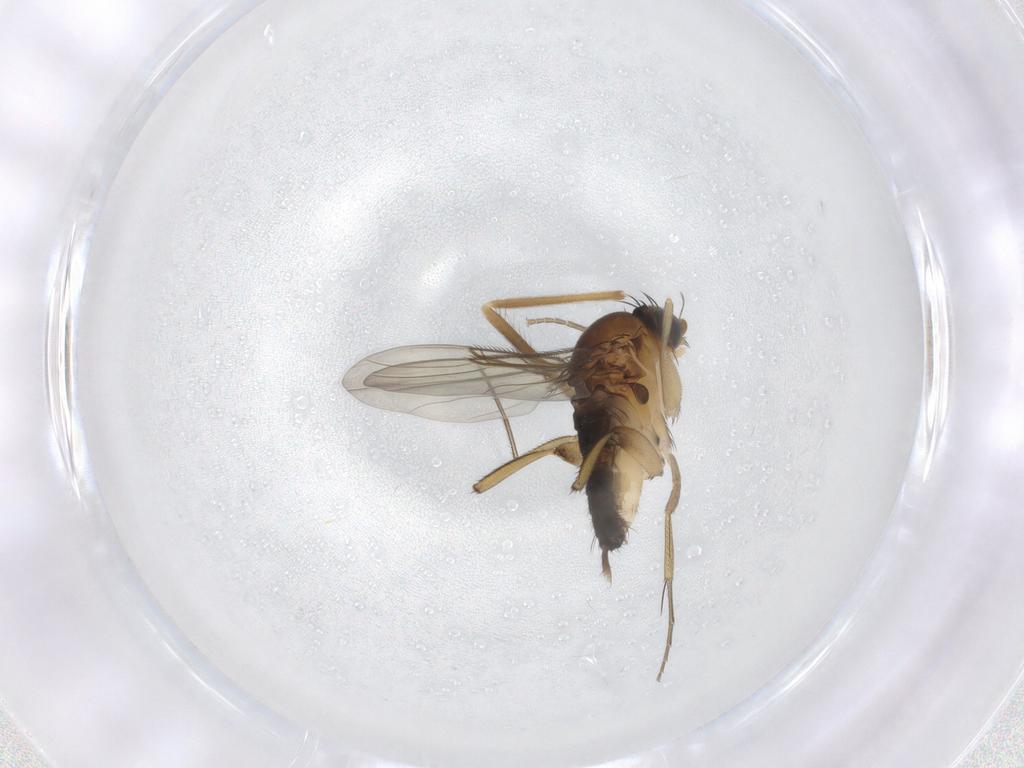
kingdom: Animalia
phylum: Arthropoda
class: Insecta
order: Diptera
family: Phoridae
